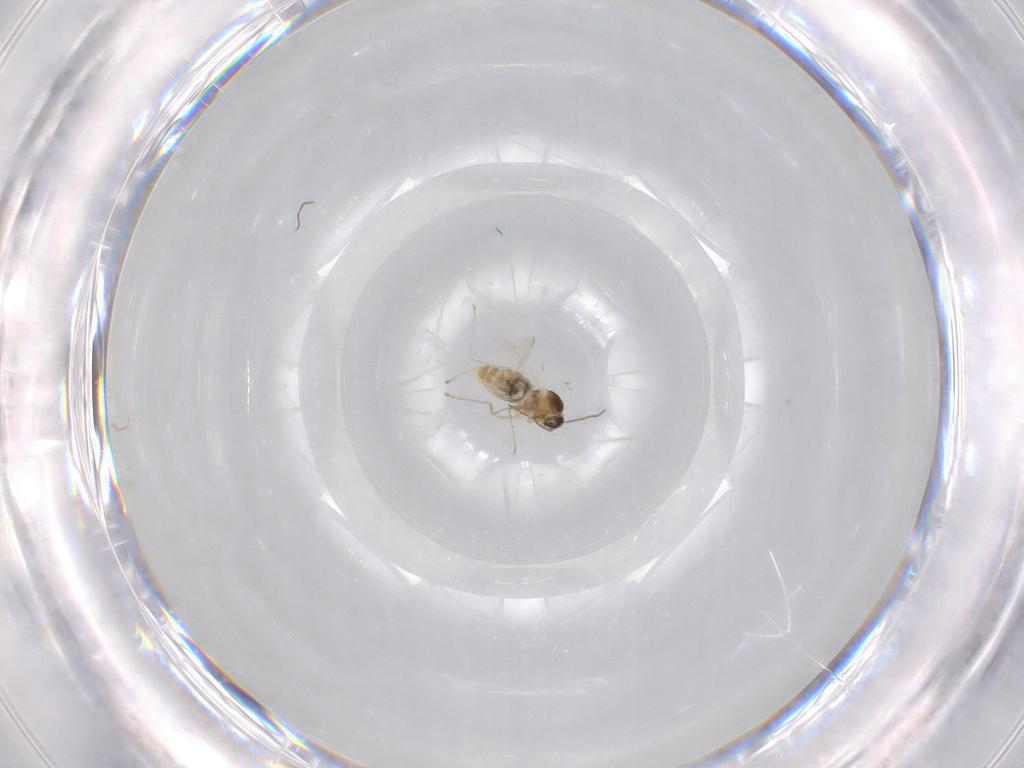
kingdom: Animalia
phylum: Arthropoda
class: Insecta
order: Diptera
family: Cecidomyiidae
